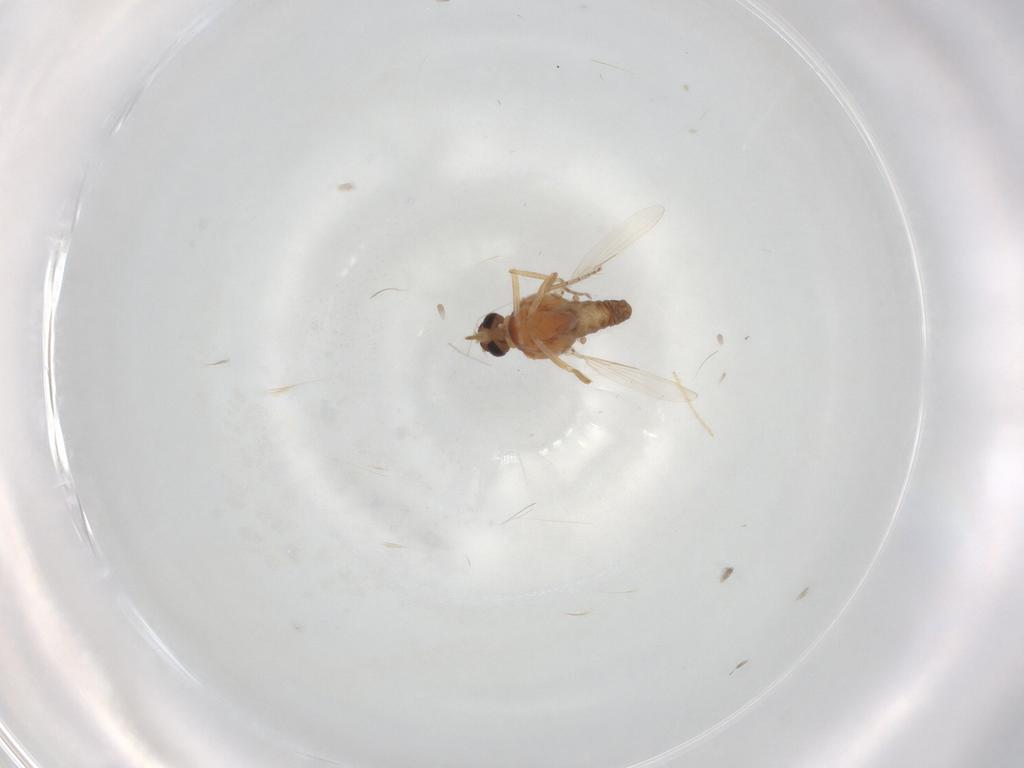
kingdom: Animalia
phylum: Arthropoda
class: Insecta
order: Diptera
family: Ceratopogonidae
